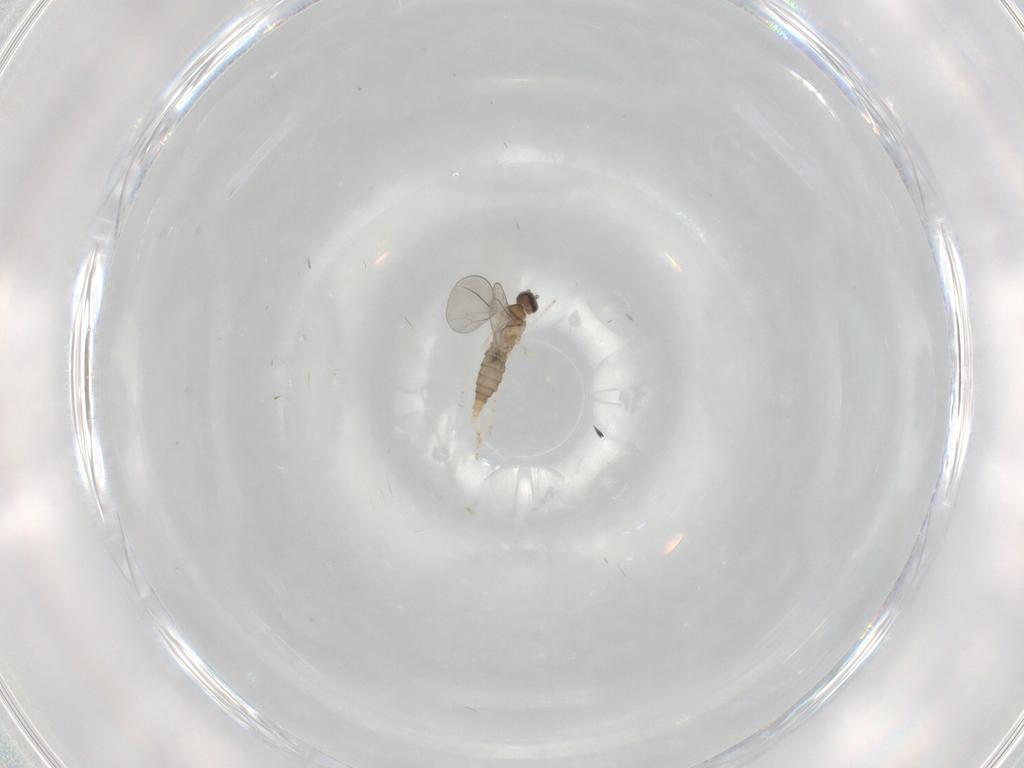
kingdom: Animalia
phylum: Arthropoda
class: Insecta
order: Diptera
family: Cecidomyiidae
